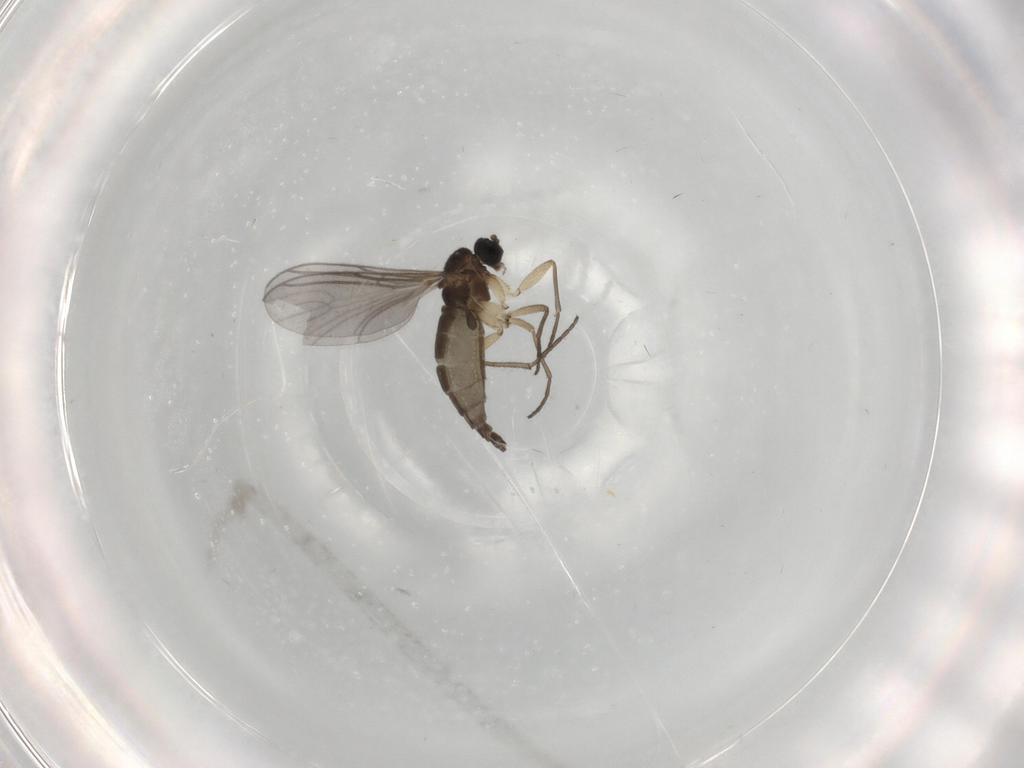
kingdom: Animalia
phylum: Arthropoda
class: Insecta
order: Diptera
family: Sciaridae
